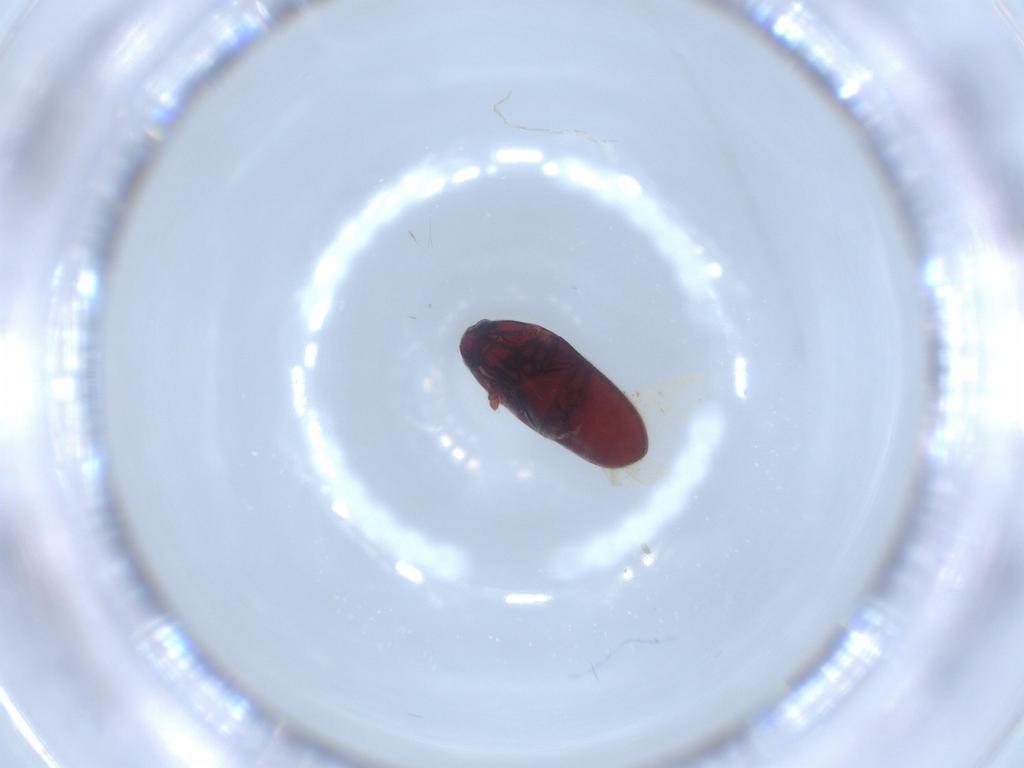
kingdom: Animalia
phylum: Arthropoda
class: Insecta
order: Coleoptera
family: Throscidae
